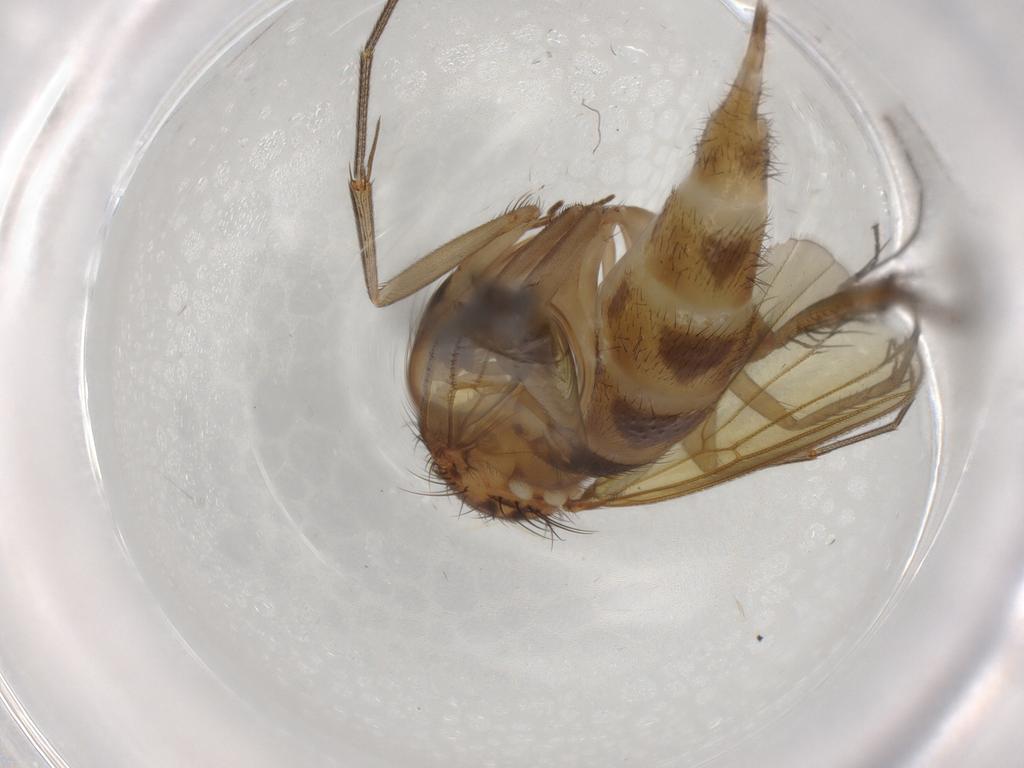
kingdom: Animalia
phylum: Arthropoda
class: Insecta
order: Diptera
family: Mycetophilidae
